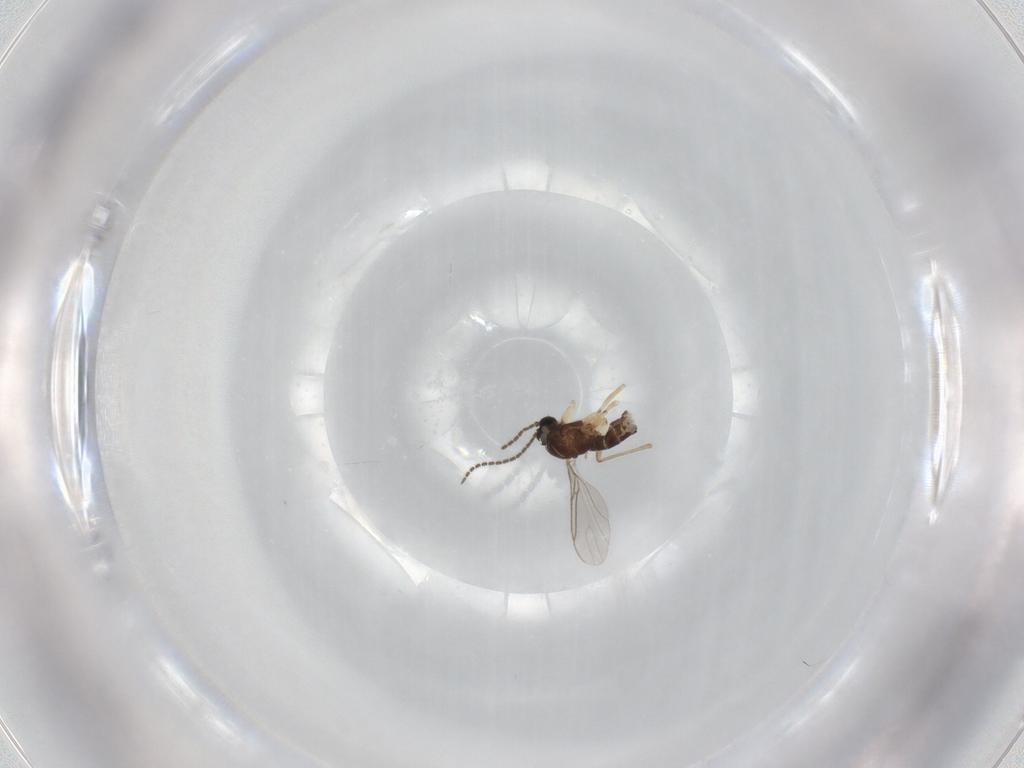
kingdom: Animalia
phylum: Arthropoda
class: Insecta
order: Diptera
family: Sciaridae
